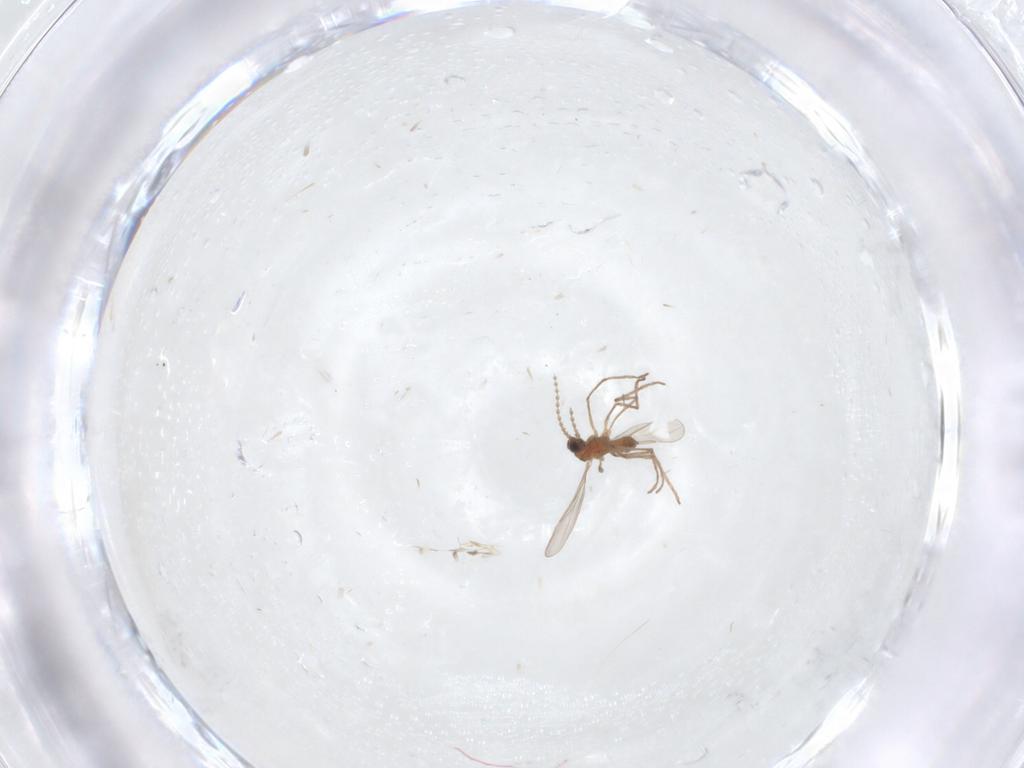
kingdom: Animalia
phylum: Arthropoda
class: Insecta
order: Diptera
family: Cecidomyiidae
